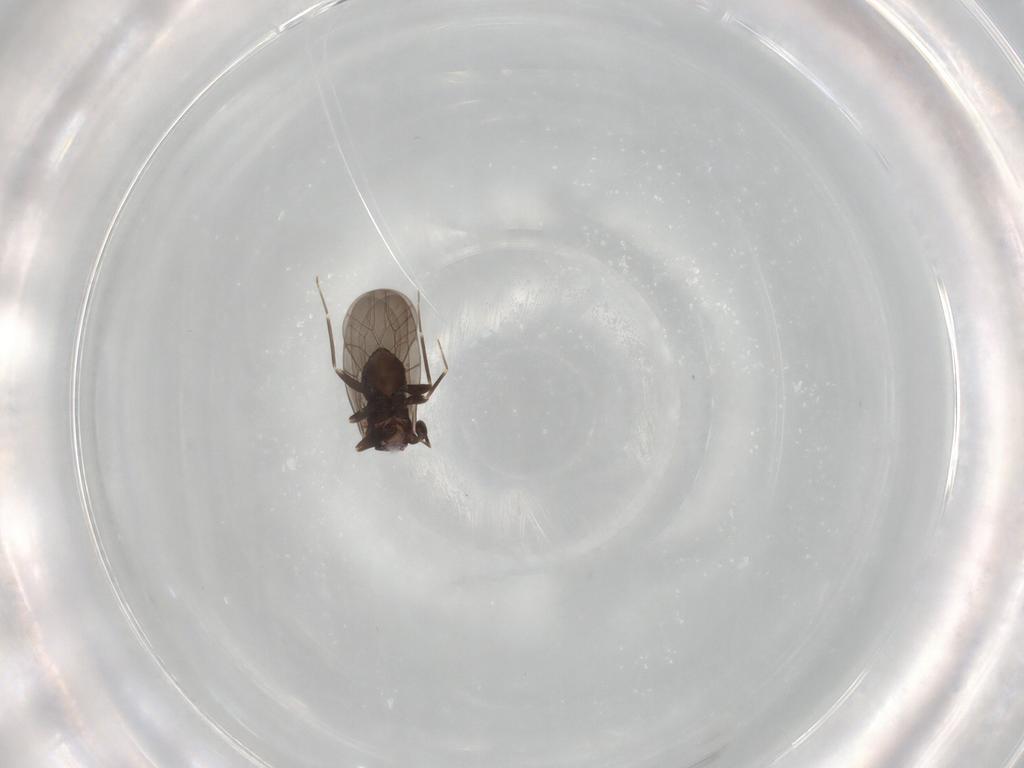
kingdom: Animalia
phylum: Arthropoda
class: Insecta
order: Psocodea
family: Lepidopsocidae
